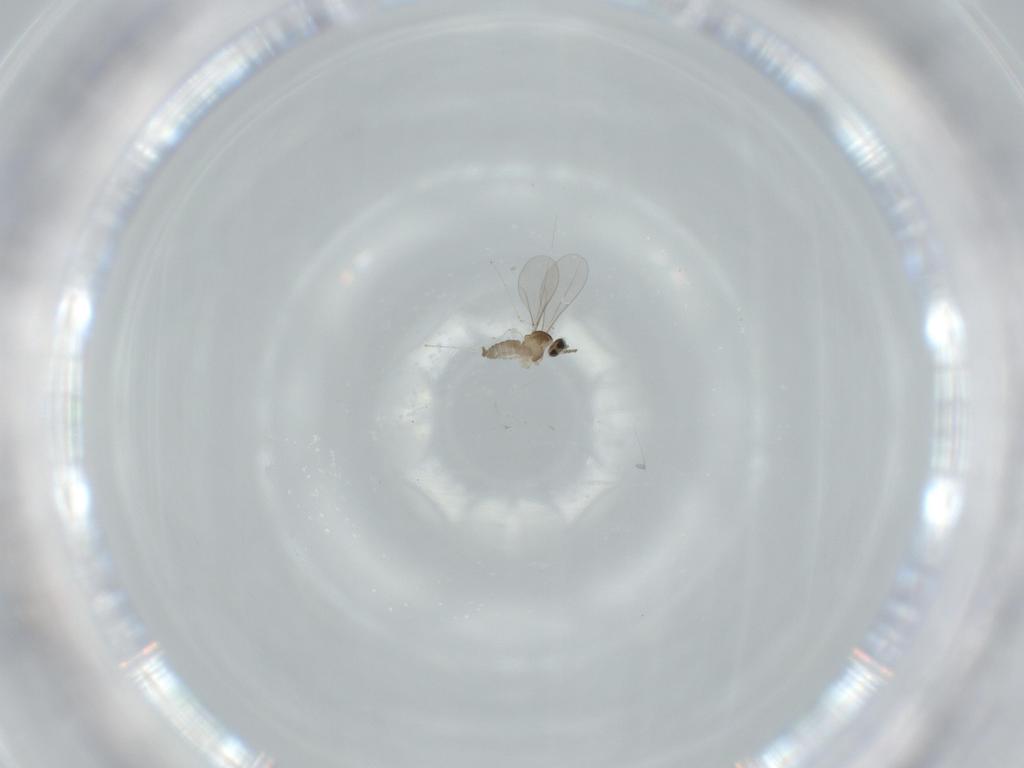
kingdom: Animalia
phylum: Arthropoda
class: Insecta
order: Diptera
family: Cecidomyiidae
